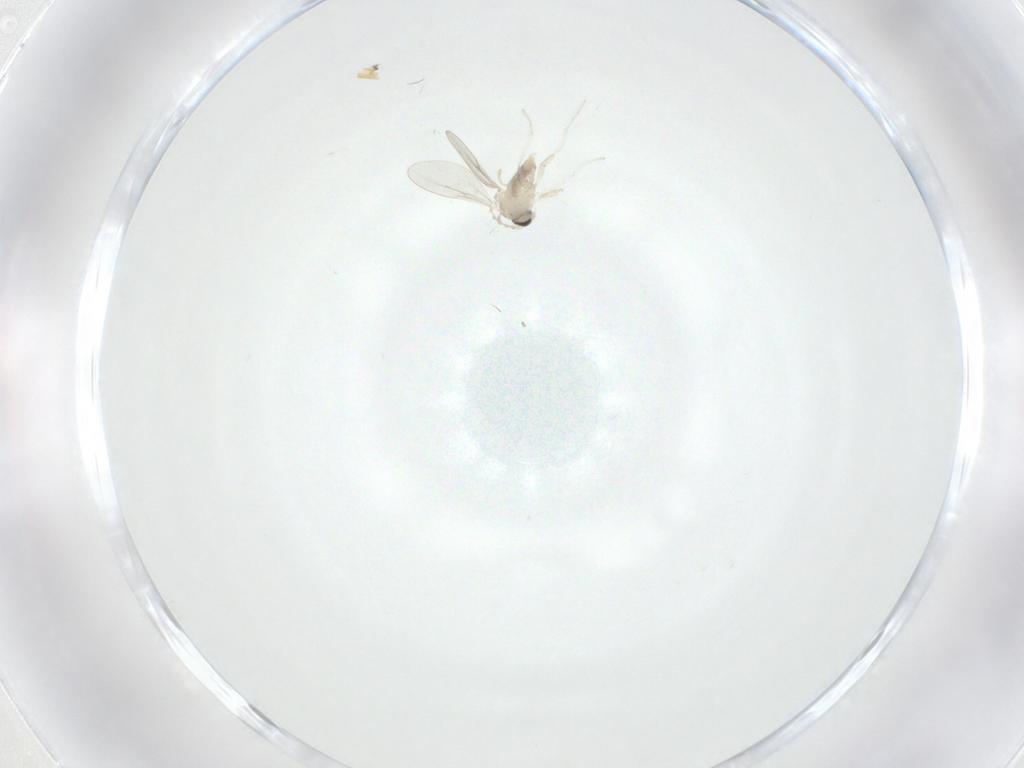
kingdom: Animalia
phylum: Arthropoda
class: Insecta
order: Diptera
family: Cecidomyiidae
